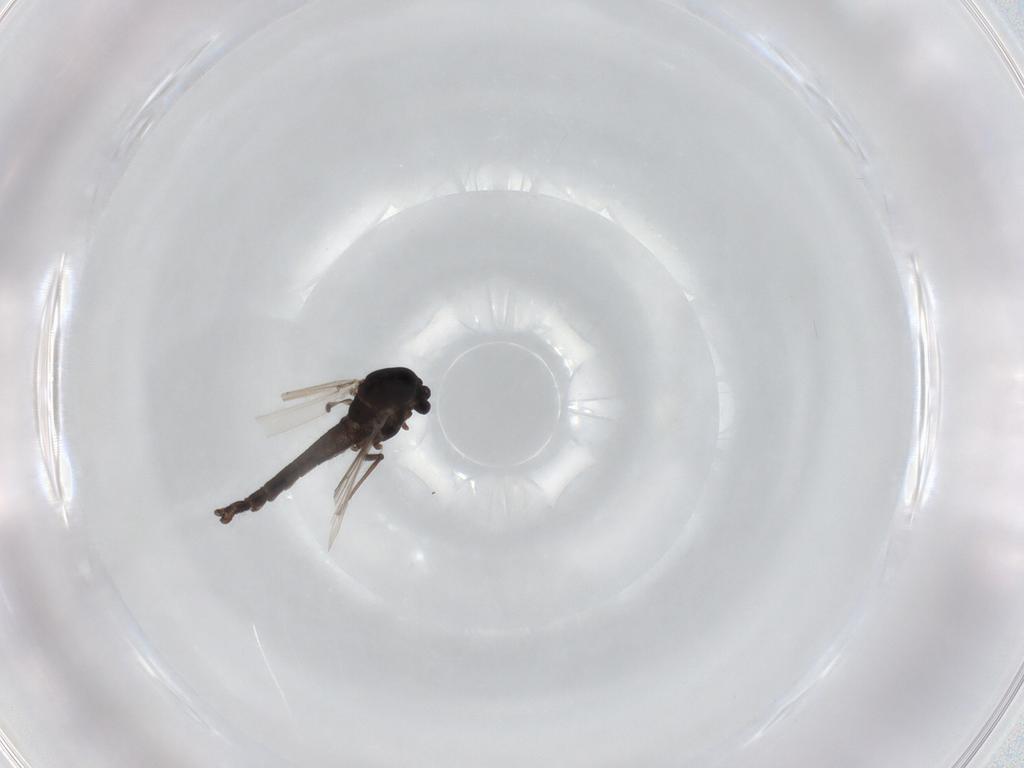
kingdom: Animalia
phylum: Arthropoda
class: Insecta
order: Diptera
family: Chironomidae
